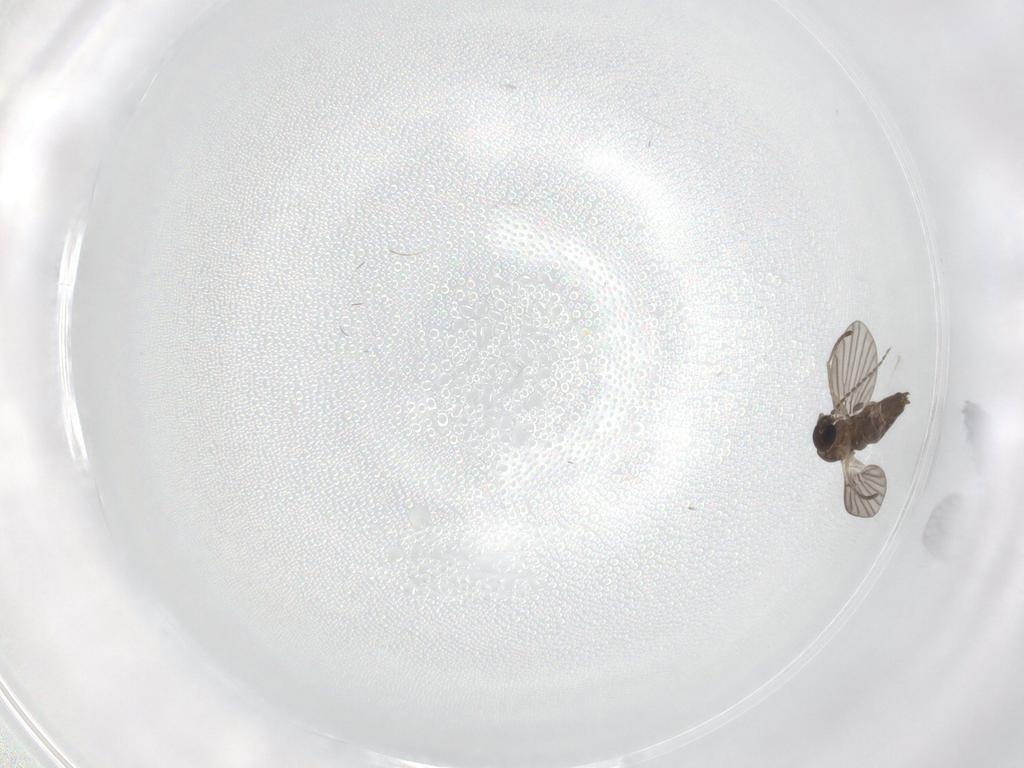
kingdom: Animalia
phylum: Arthropoda
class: Insecta
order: Diptera
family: Psychodidae
